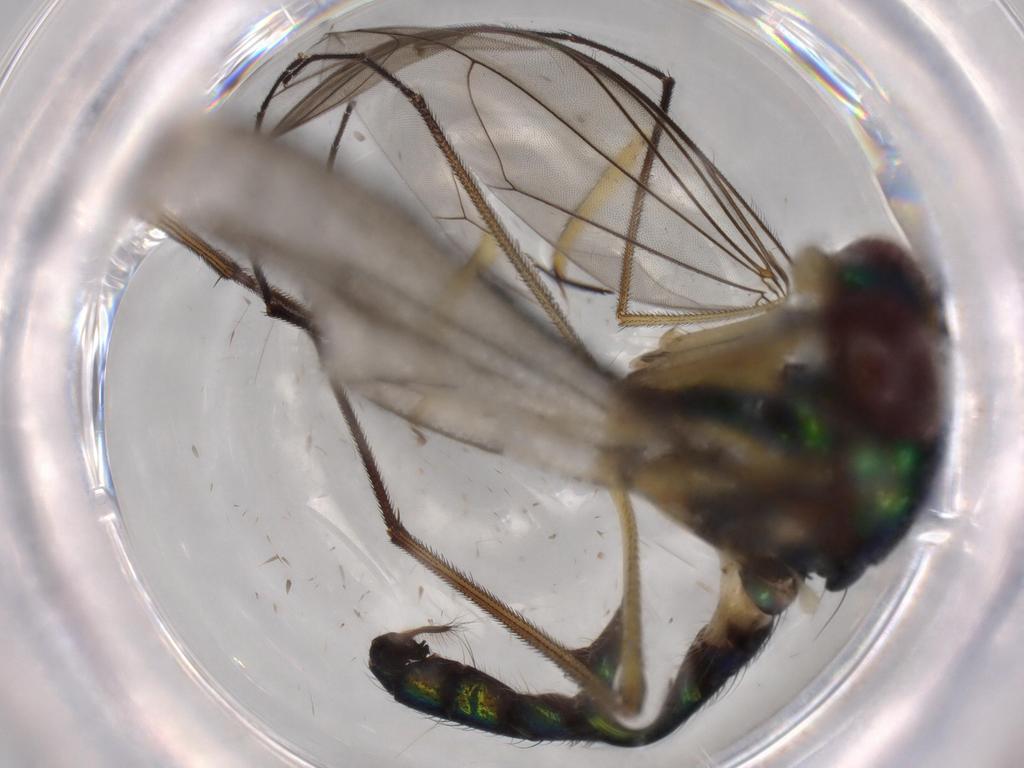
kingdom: Animalia
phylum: Arthropoda
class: Insecta
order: Diptera
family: Dolichopodidae
